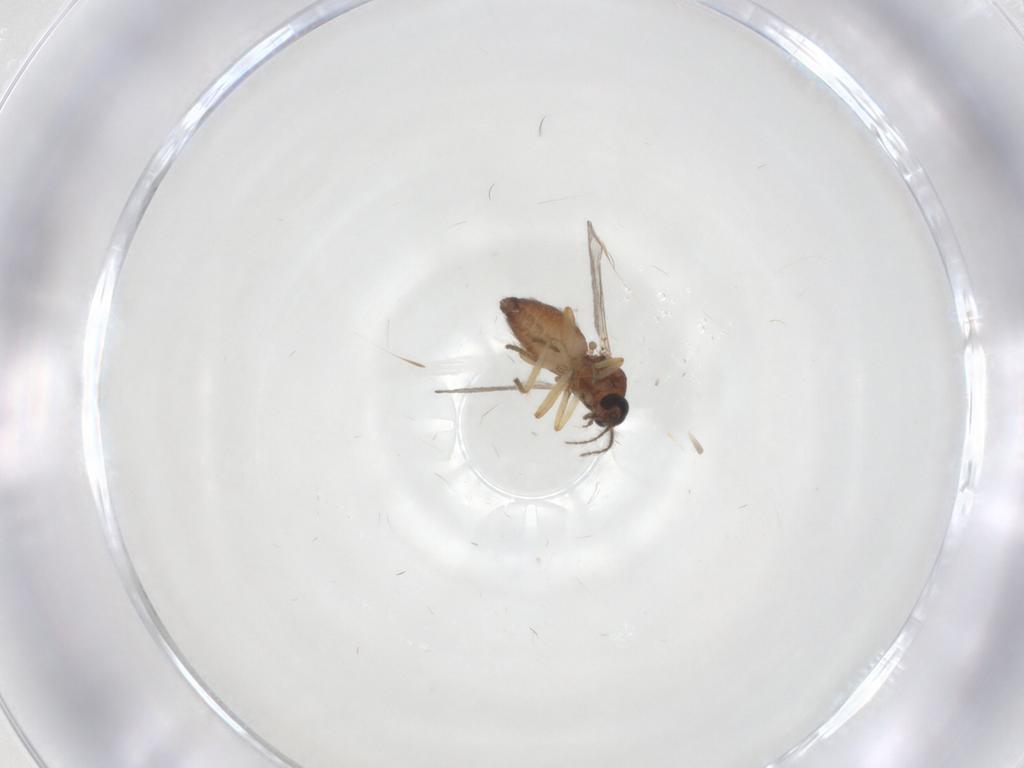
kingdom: Animalia
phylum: Arthropoda
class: Insecta
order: Diptera
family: Ceratopogonidae
